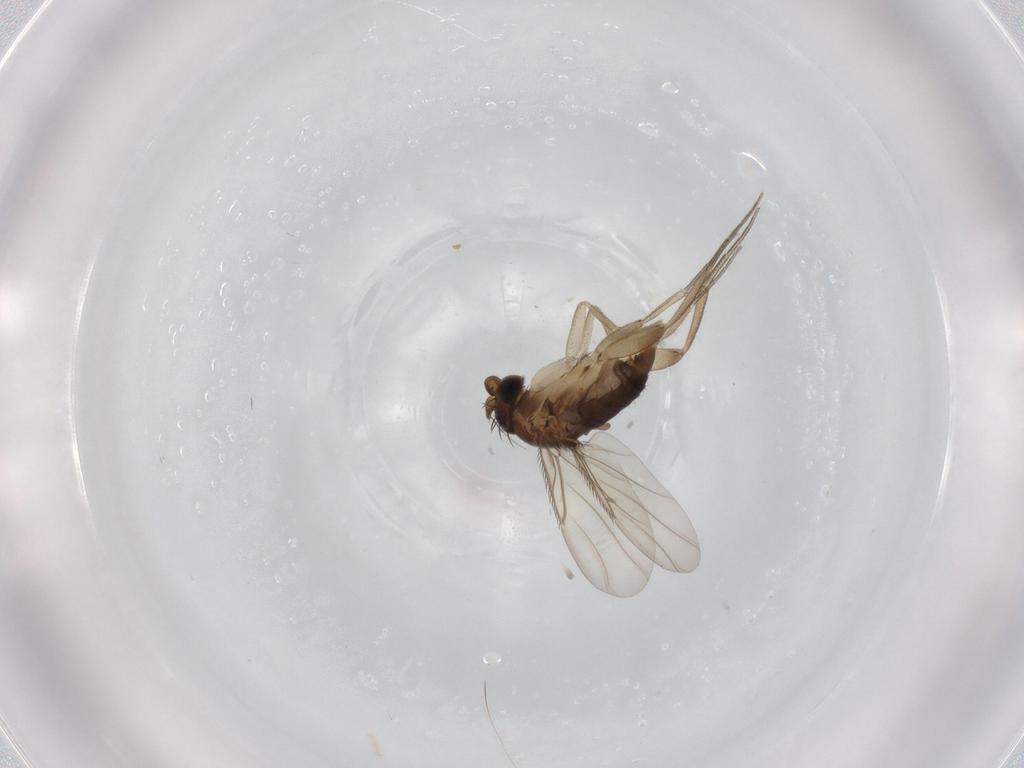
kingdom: Animalia
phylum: Arthropoda
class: Insecta
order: Diptera
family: Phoridae
